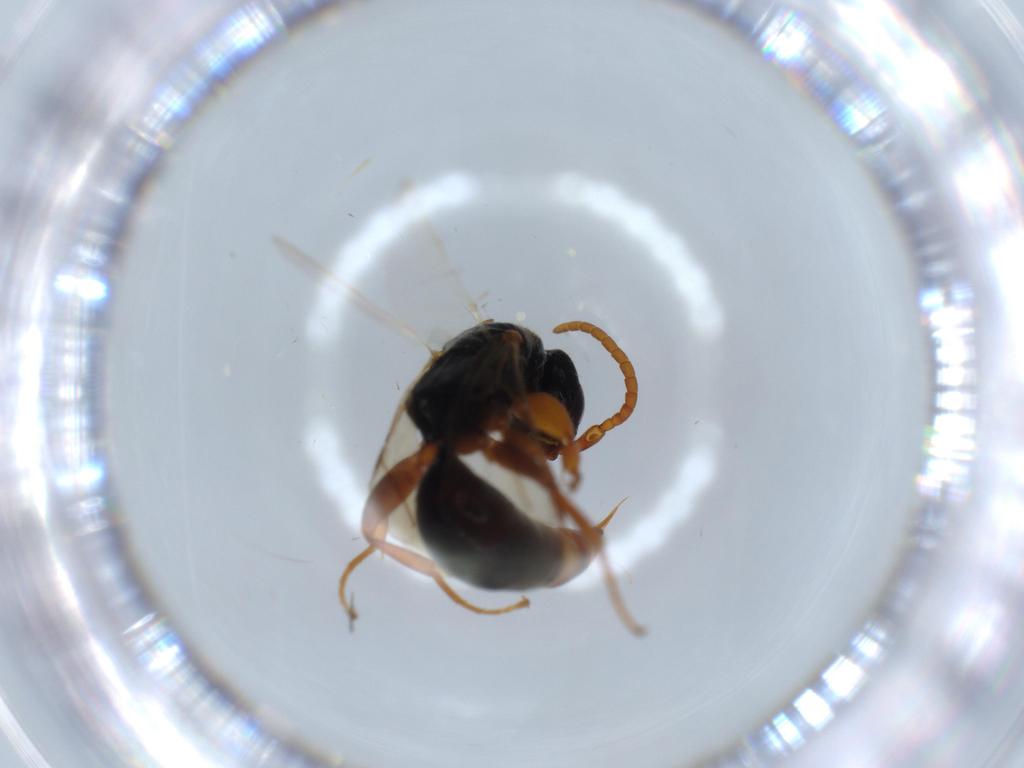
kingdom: Animalia
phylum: Arthropoda
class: Insecta
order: Hymenoptera
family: Bethylidae
